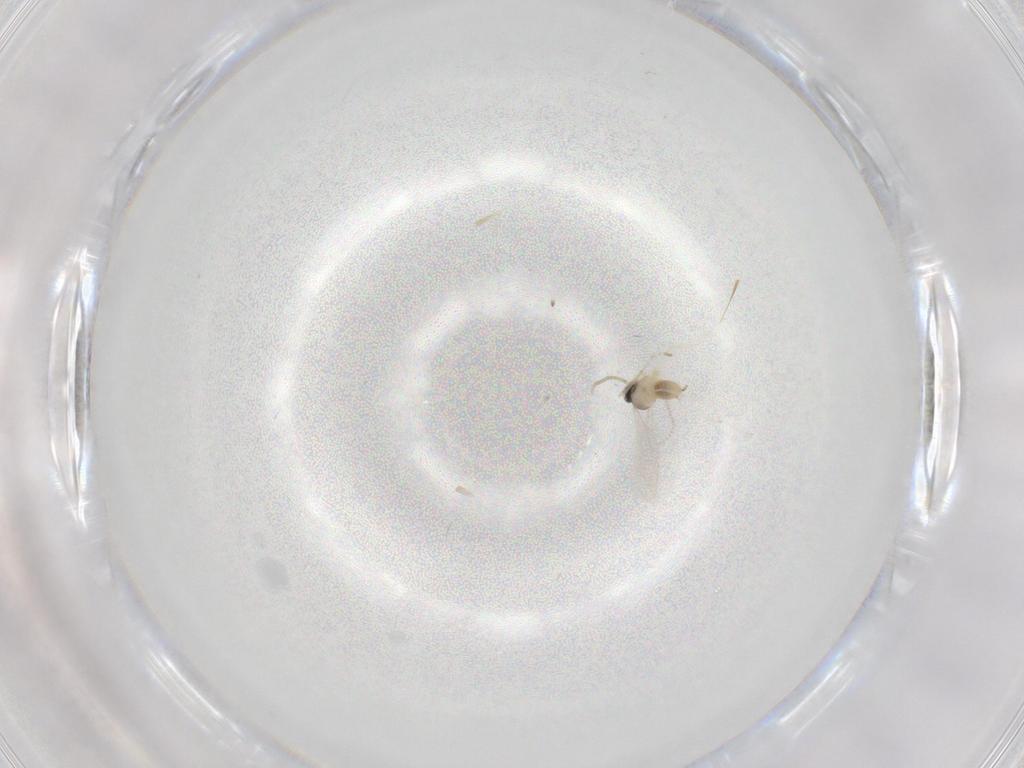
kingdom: Animalia
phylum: Arthropoda
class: Insecta
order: Diptera
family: Cecidomyiidae
